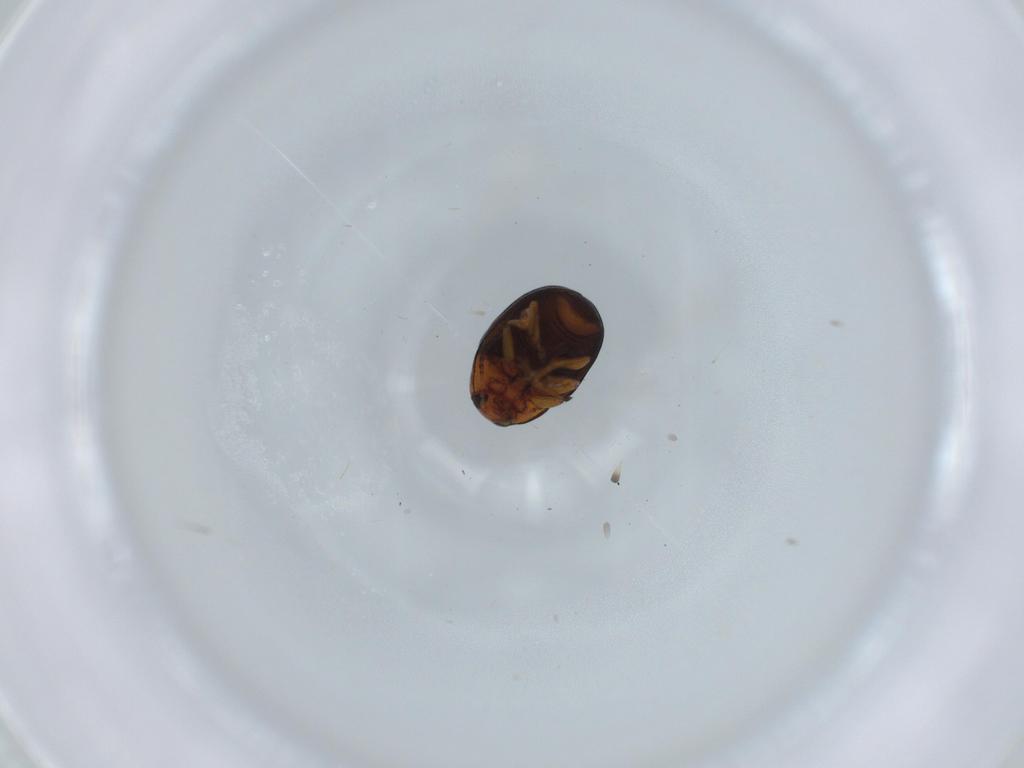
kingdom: Animalia
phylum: Arthropoda
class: Insecta
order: Coleoptera
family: Chrysomelidae
